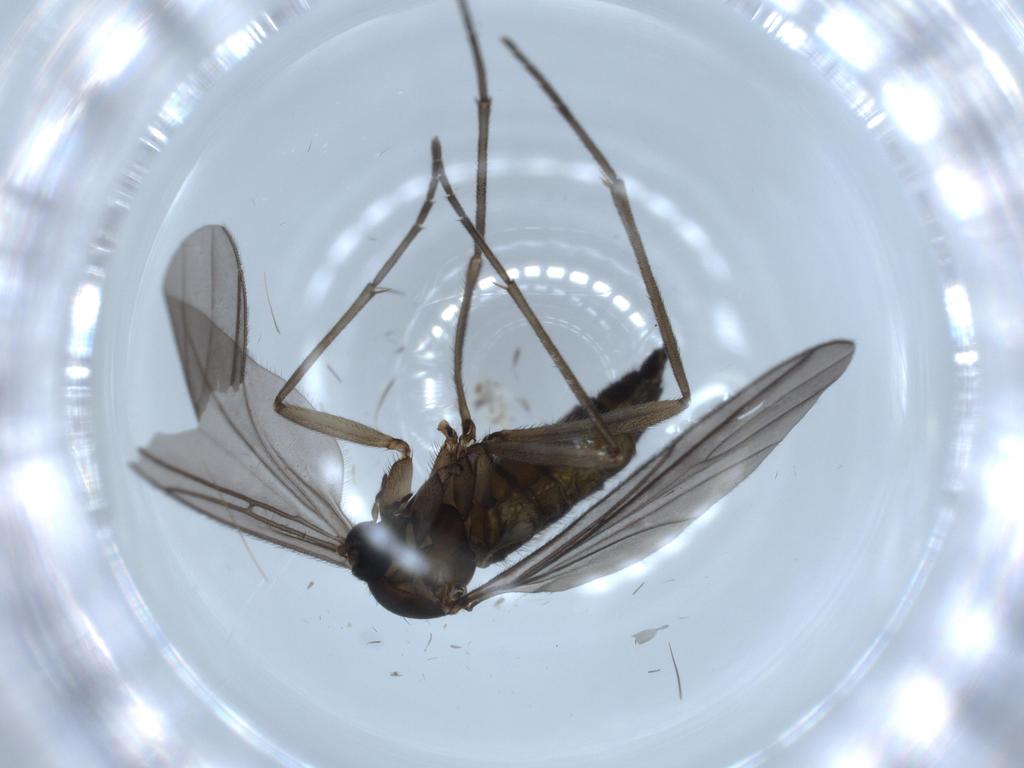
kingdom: Animalia
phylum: Arthropoda
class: Insecta
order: Diptera
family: Sciaridae
